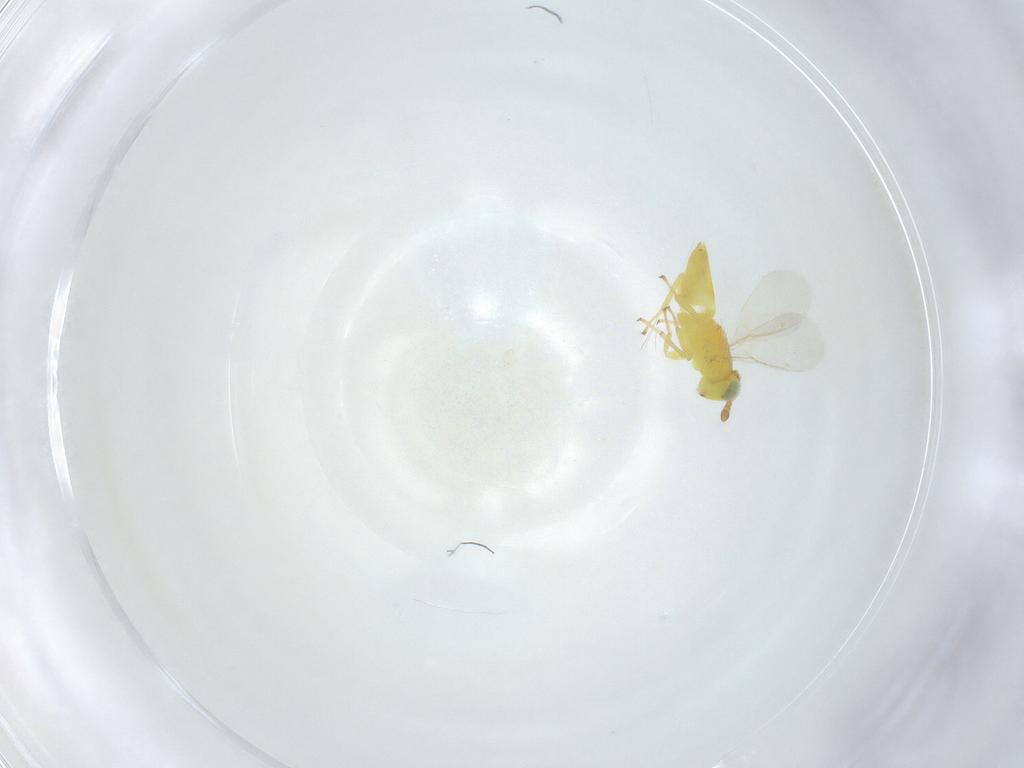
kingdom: Animalia
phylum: Arthropoda
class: Insecta
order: Hymenoptera
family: Aphelinidae
